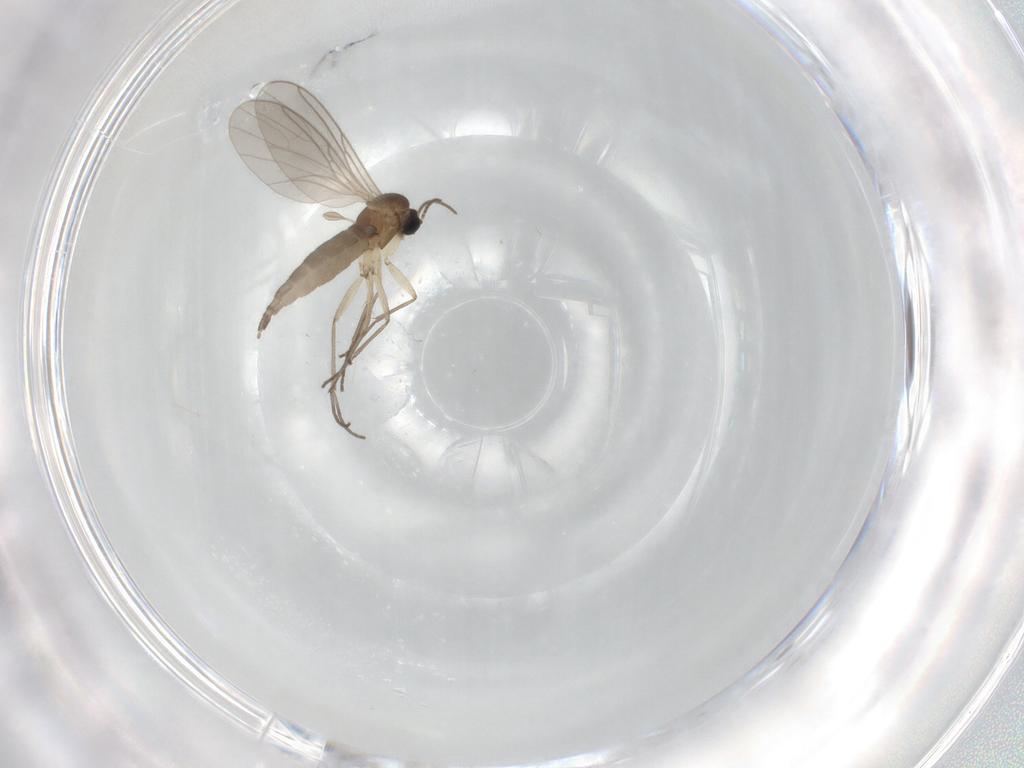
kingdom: Animalia
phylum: Arthropoda
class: Insecta
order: Diptera
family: Sciaridae
